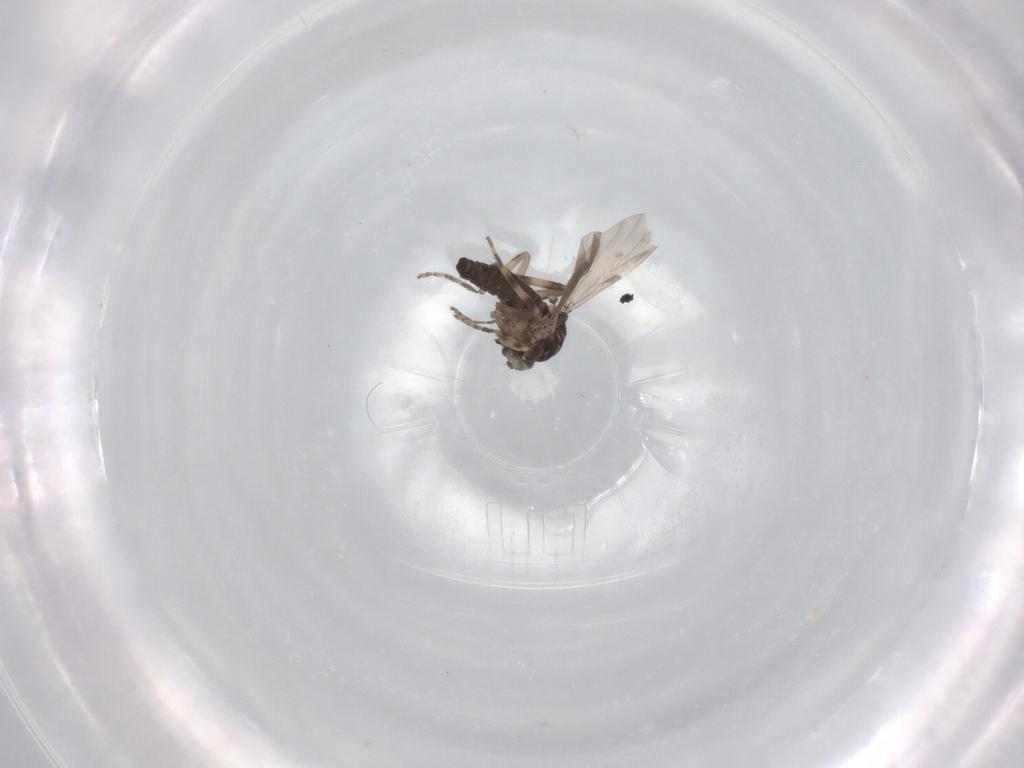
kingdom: Animalia
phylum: Arthropoda
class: Insecta
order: Diptera
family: Ceratopogonidae
